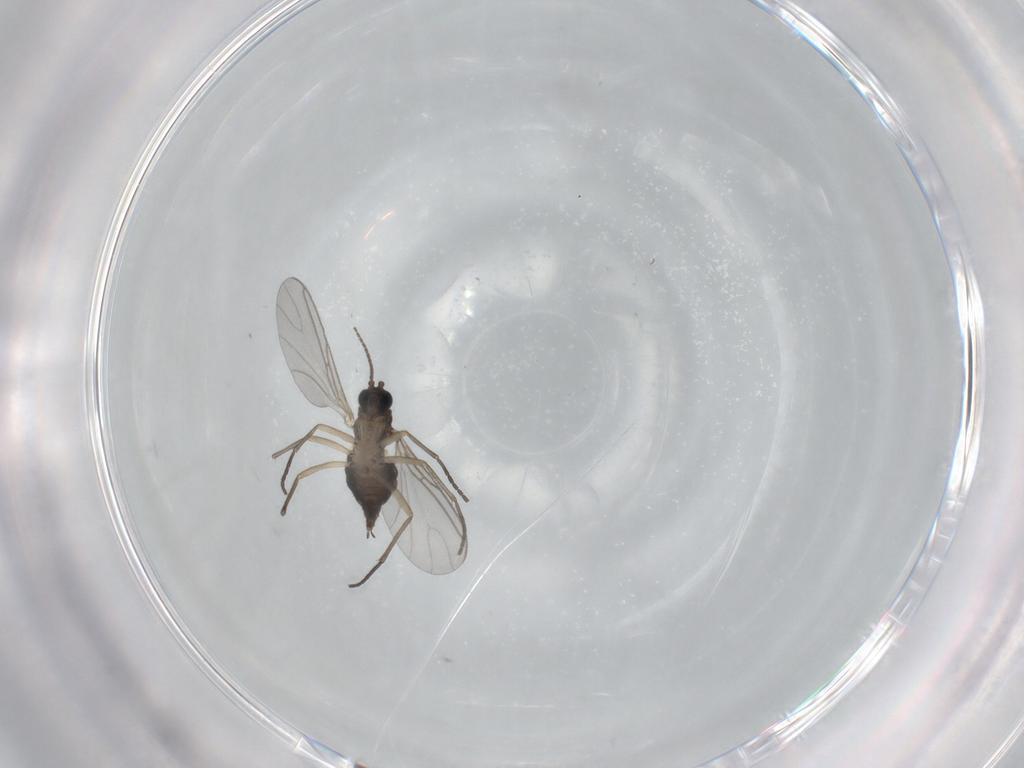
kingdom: Animalia
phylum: Arthropoda
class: Insecta
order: Diptera
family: Sciaridae
